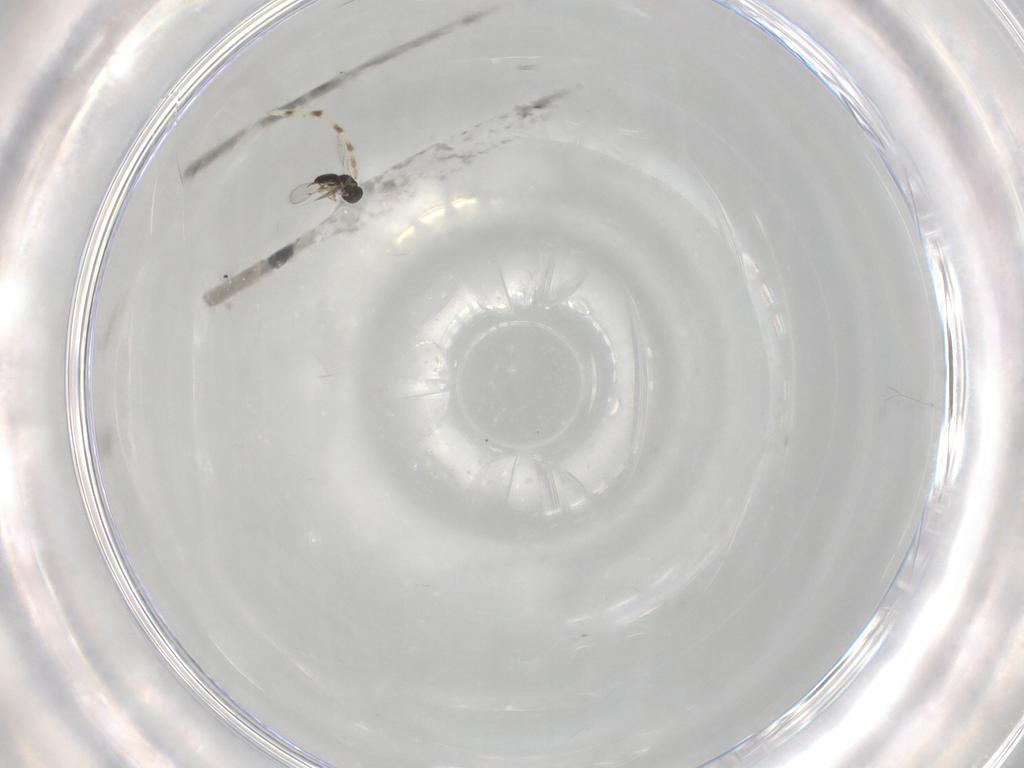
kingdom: Animalia
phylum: Arthropoda
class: Insecta
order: Hymenoptera
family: Eulophidae
